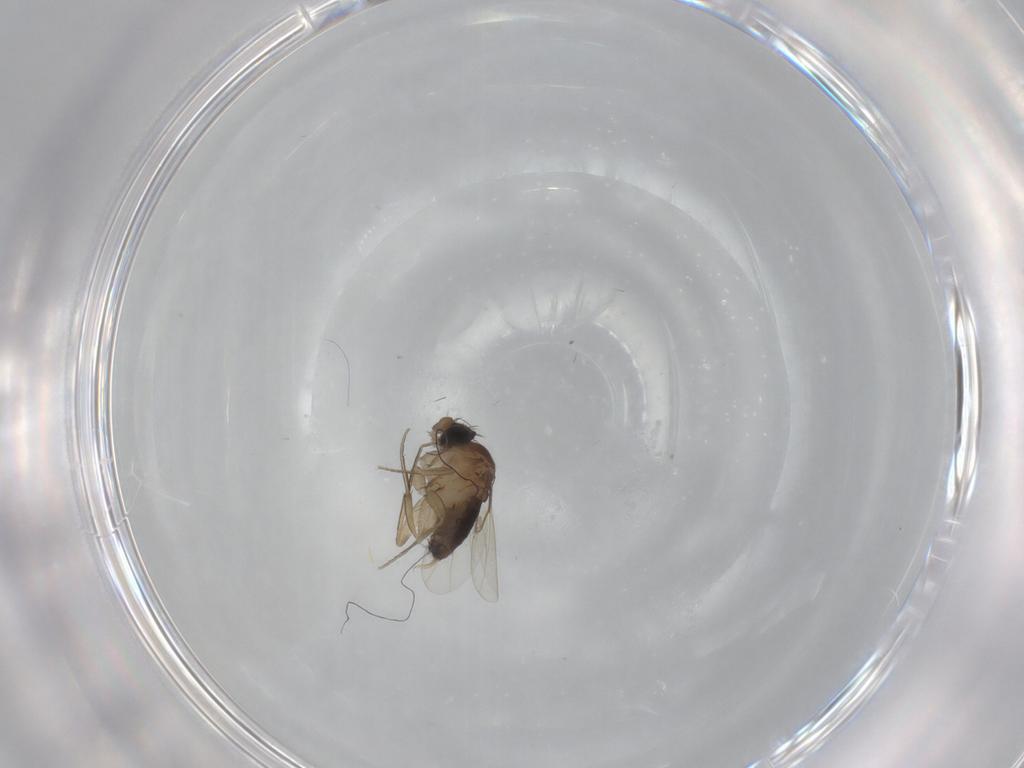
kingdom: Animalia
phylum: Arthropoda
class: Insecta
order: Diptera
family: Phoridae
